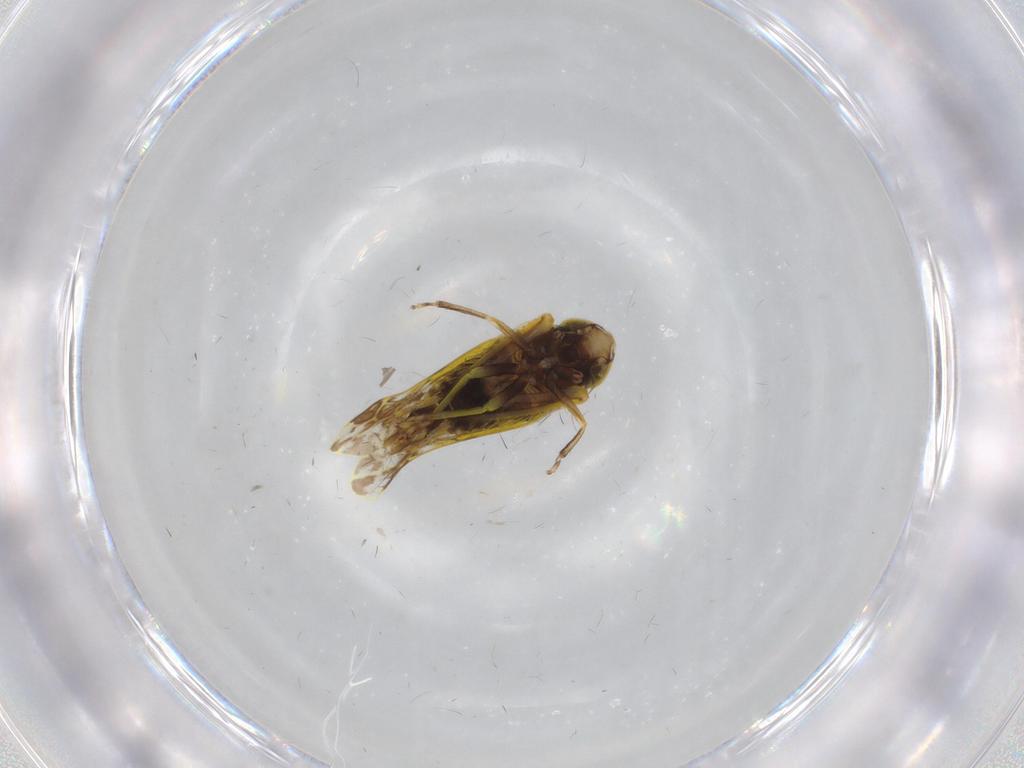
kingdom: Animalia
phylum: Arthropoda
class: Insecta
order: Hemiptera
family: Cicadellidae
